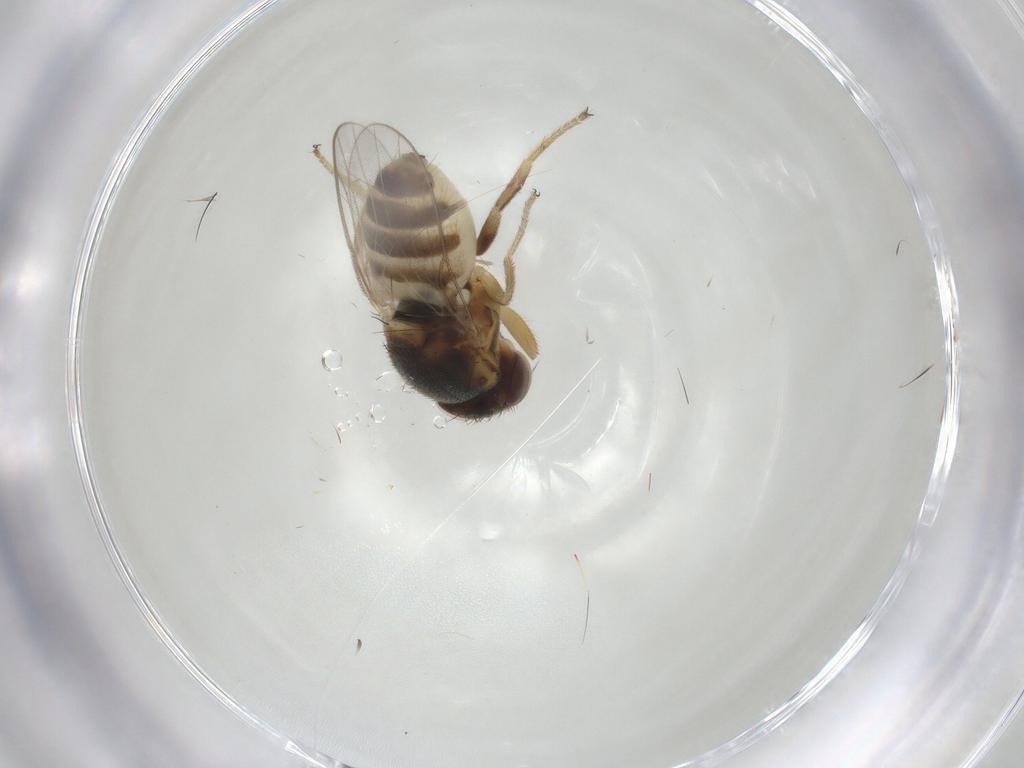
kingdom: Animalia
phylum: Arthropoda
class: Insecta
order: Diptera
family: Chloropidae
